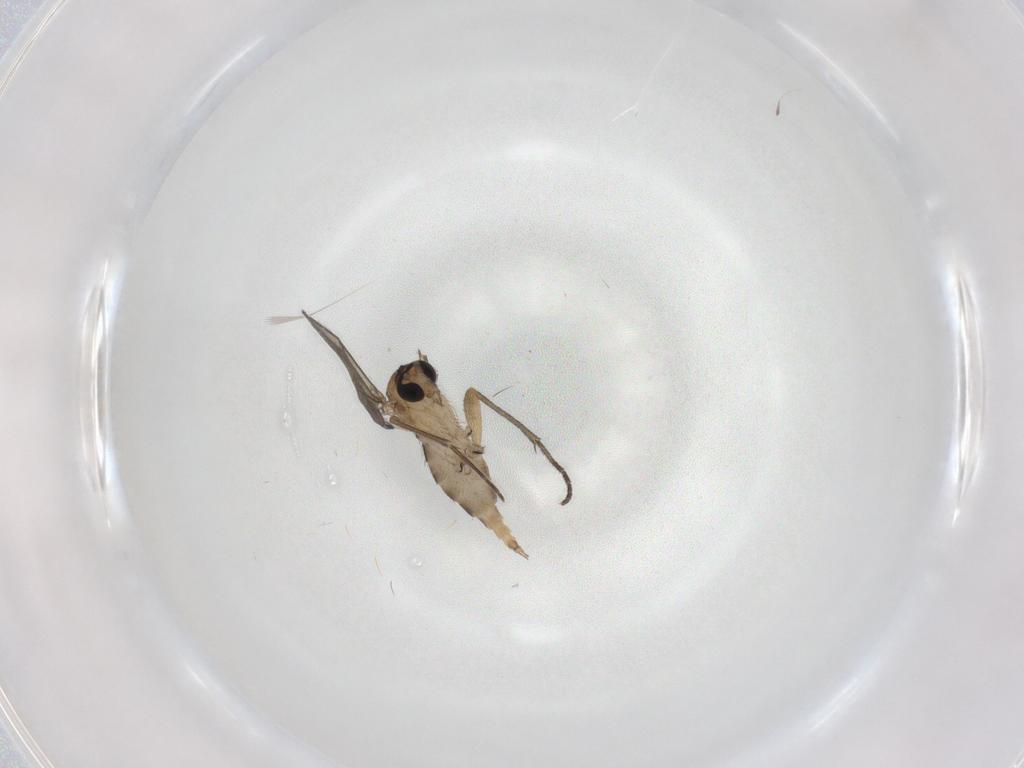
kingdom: Animalia
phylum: Arthropoda
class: Insecta
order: Diptera
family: Sciaridae
